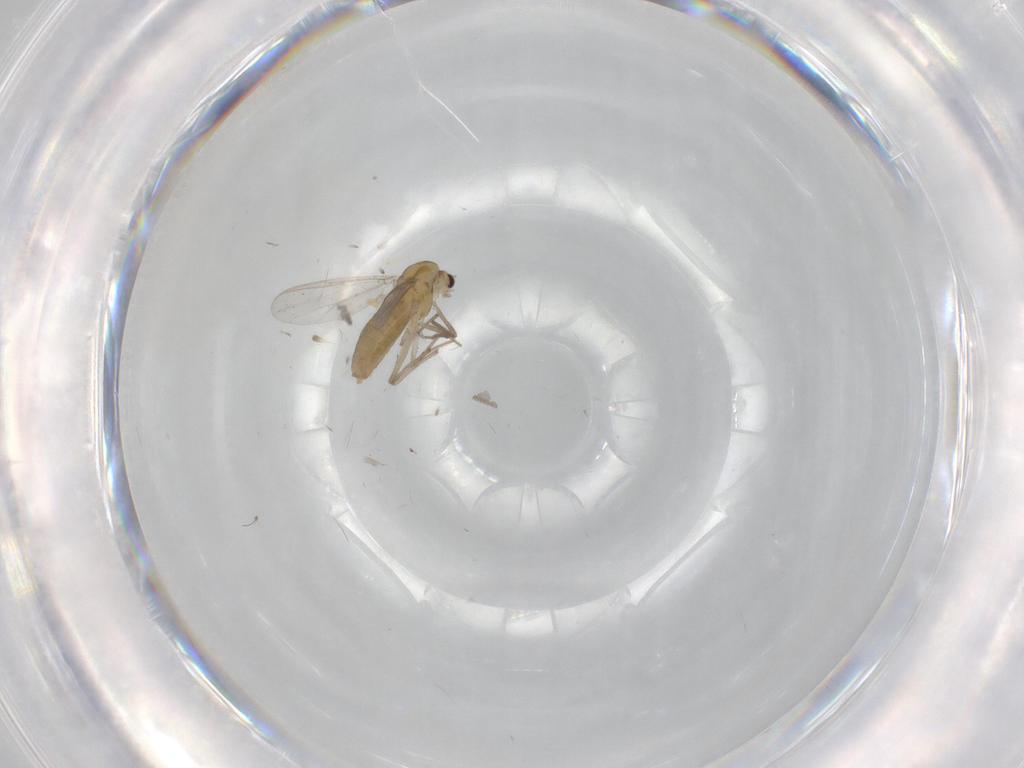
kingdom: Animalia
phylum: Arthropoda
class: Insecta
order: Diptera
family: Chironomidae
